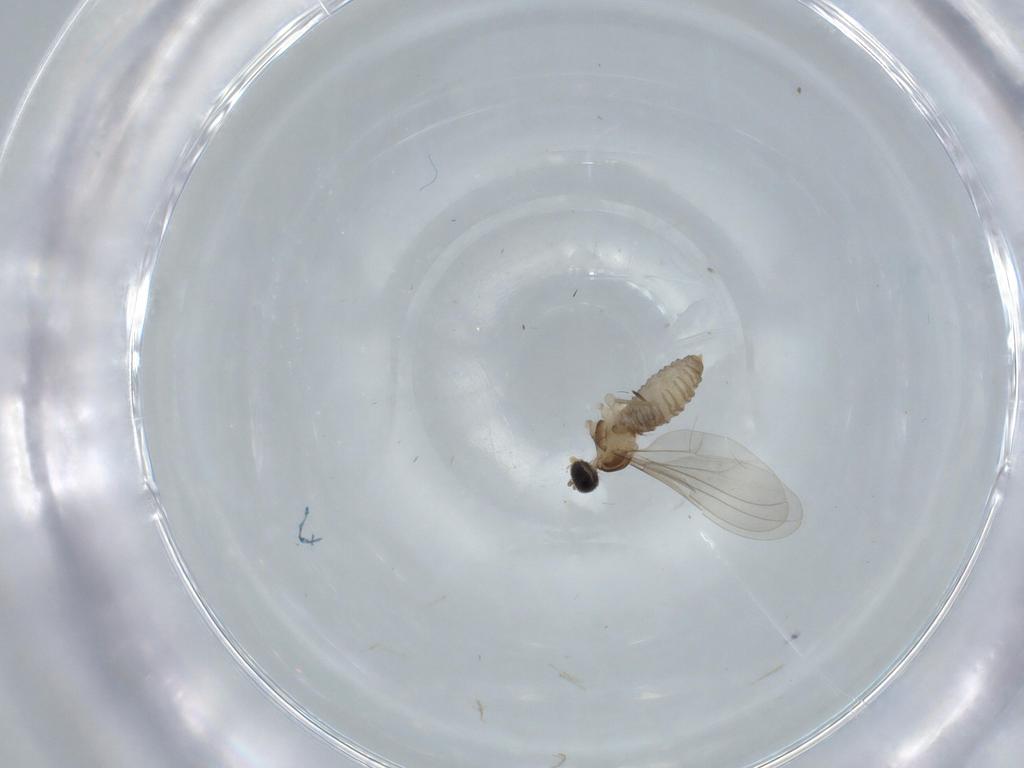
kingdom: Animalia
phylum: Arthropoda
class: Insecta
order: Diptera
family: Cecidomyiidae
